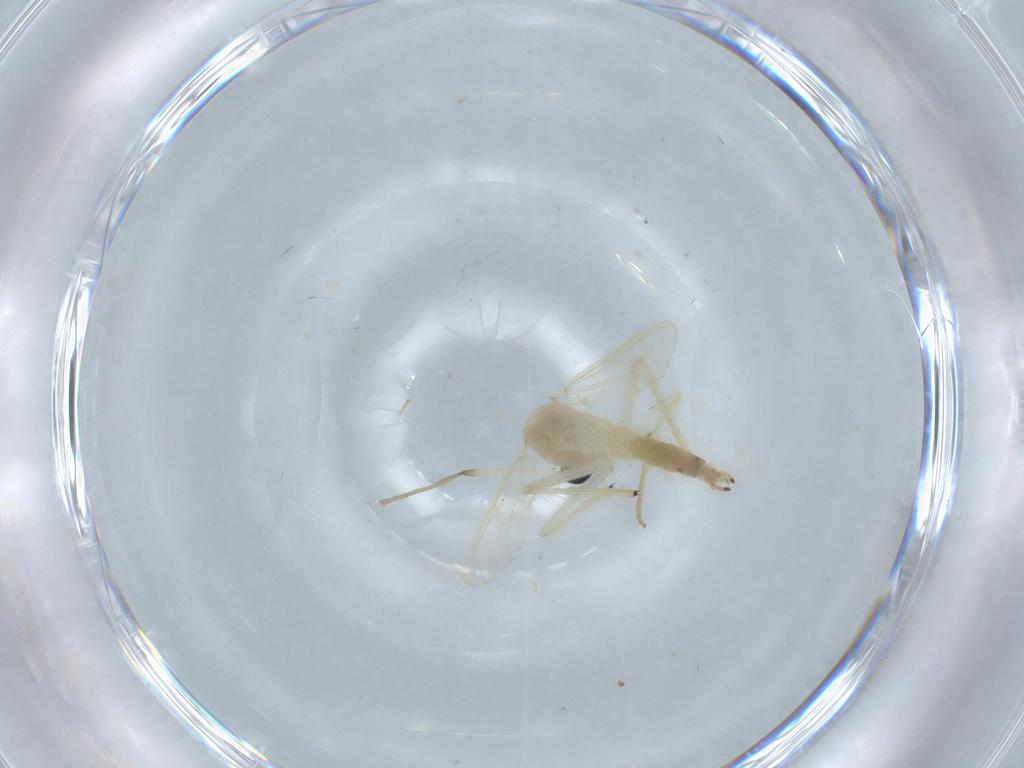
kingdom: Animalia
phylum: Arthropoda
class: Insecta
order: Diptera
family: Chironomidae
